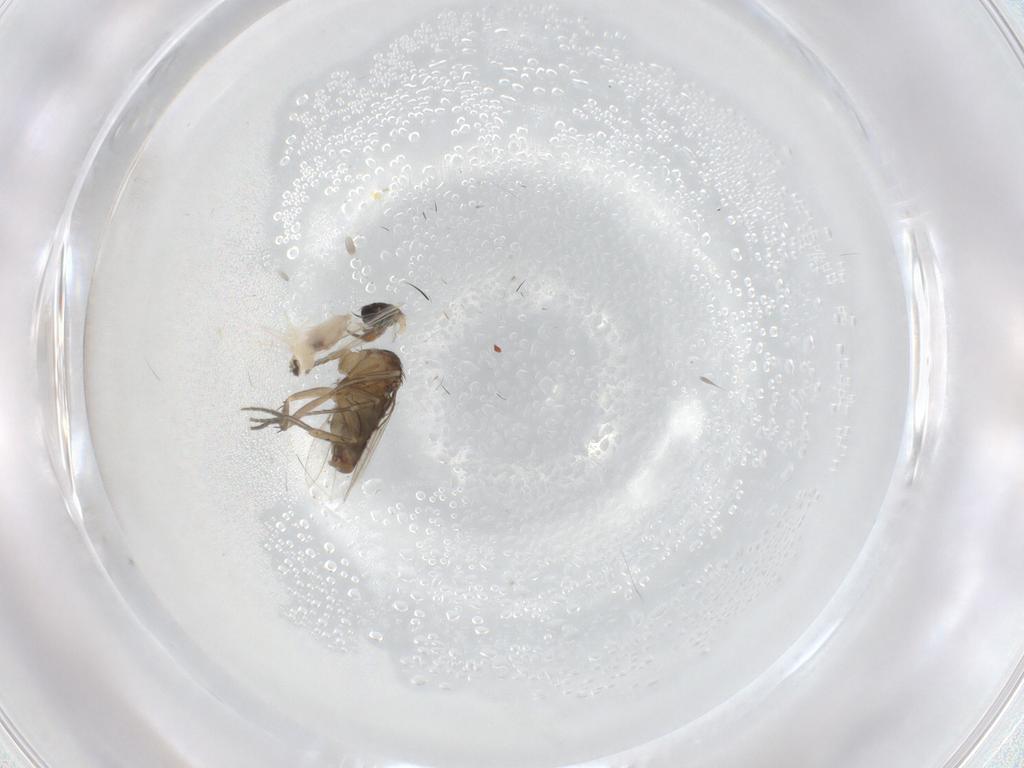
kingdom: Animalia
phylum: Arthropoda
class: Insecta
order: Diptera
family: Phoridae
